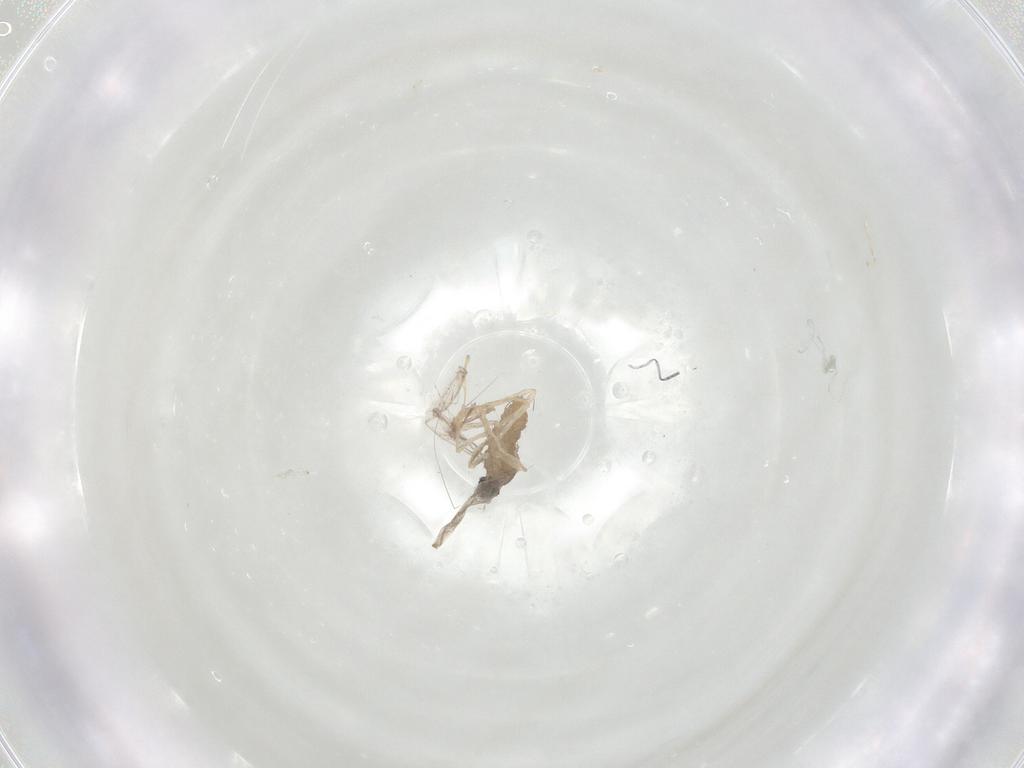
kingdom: Animalia
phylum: Arthropoda
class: Insecta
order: Diptera
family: Cecidomyiidae
